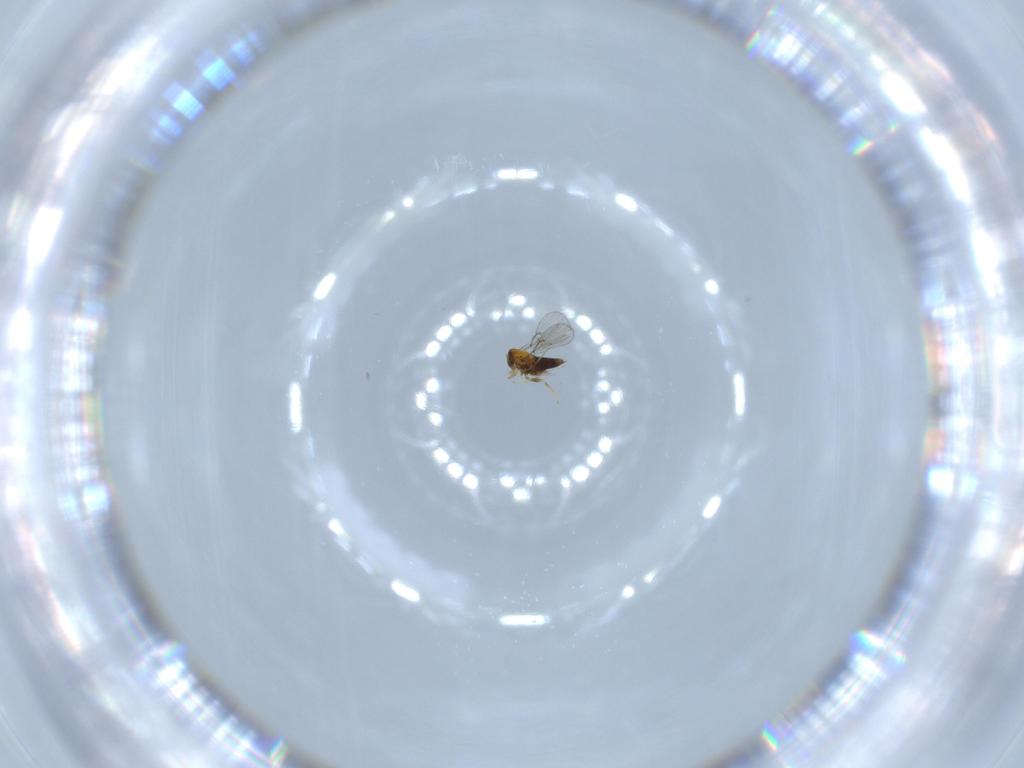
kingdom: Animalia
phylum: Arthropoda
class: Insecta
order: Hymenoptera
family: Trichogrammatidae
